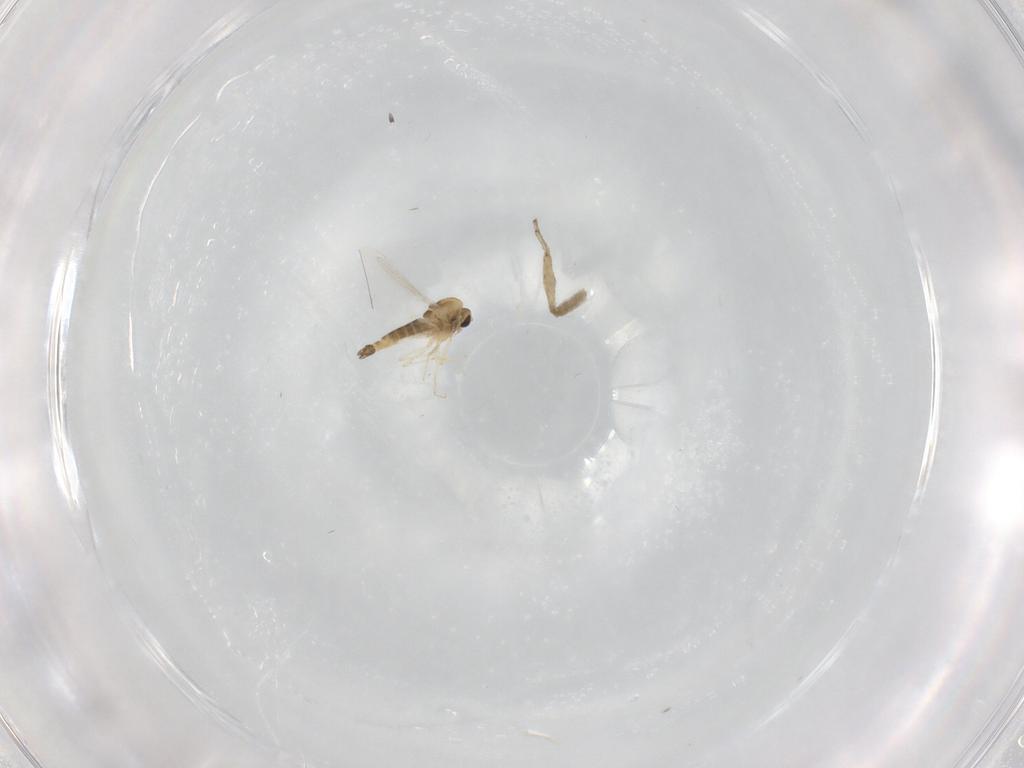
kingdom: Animalia
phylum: Arthropoda
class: Insecta
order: Diptera
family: Chironomidae
